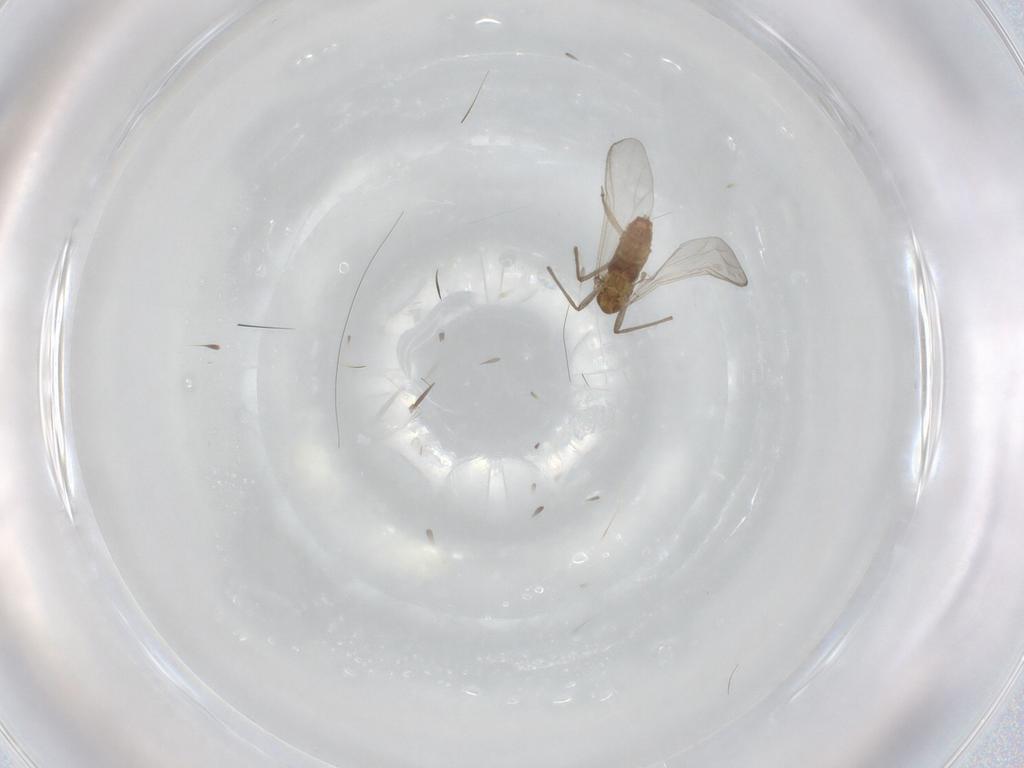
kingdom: Animalia
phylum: Arthropoda
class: Insecta
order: Diptera
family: Chironomidae
